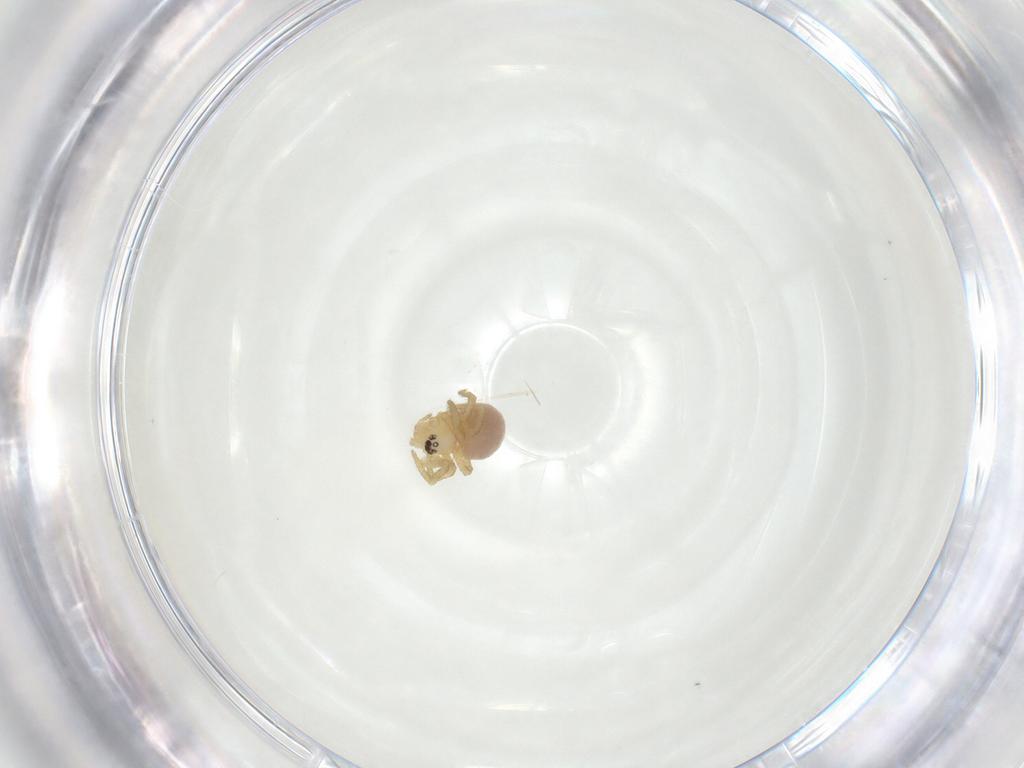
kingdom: Animalia
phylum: Arthropoda
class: Arachnida
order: Araneae
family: Theridiidae
